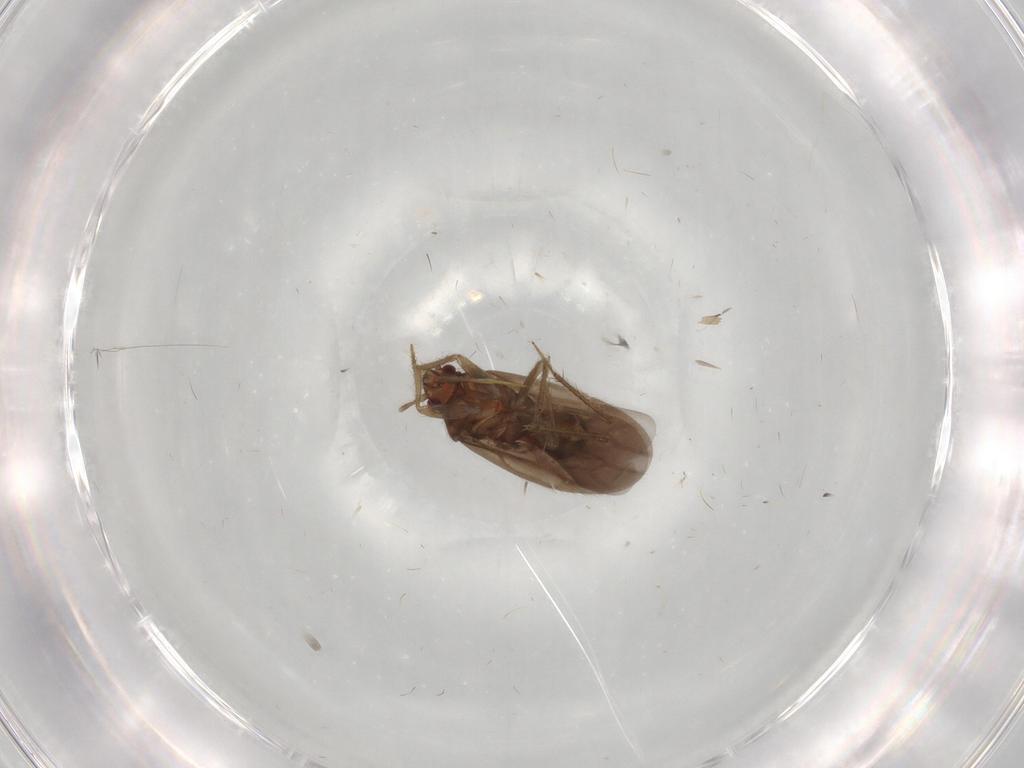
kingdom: Animalia
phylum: Arthropoda
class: Insecta
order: Hemiptera
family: Ceratocombidae
